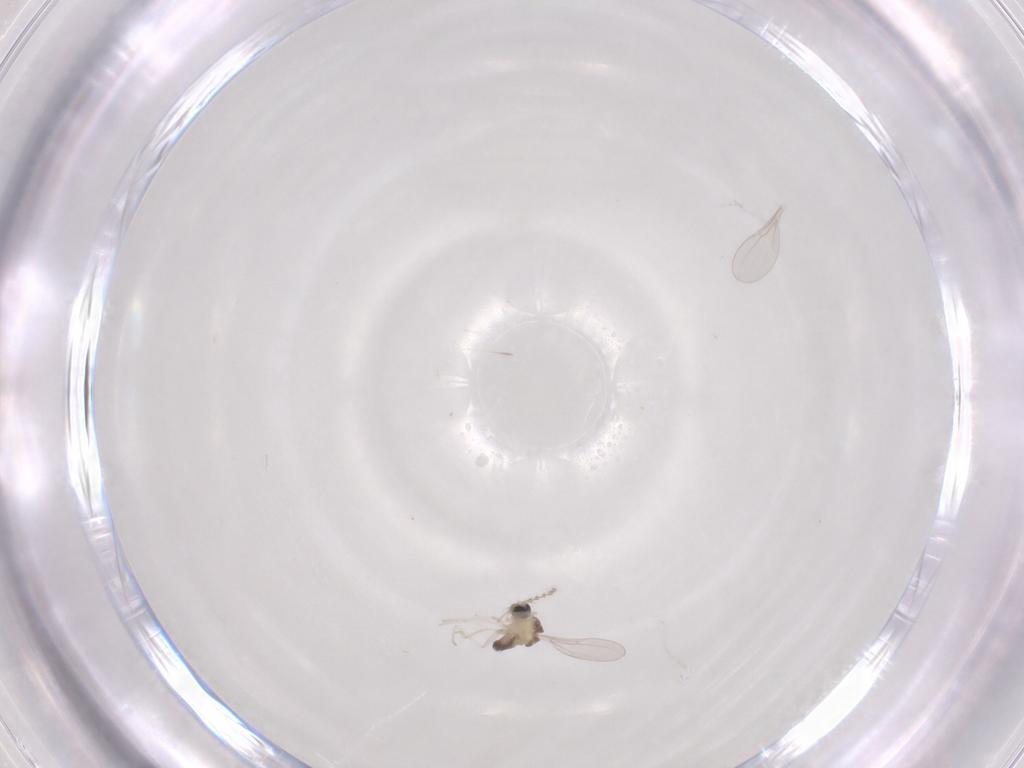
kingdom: Animalia
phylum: Arthropoda
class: Insecta
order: Diptera
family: Cecidomyiidae
